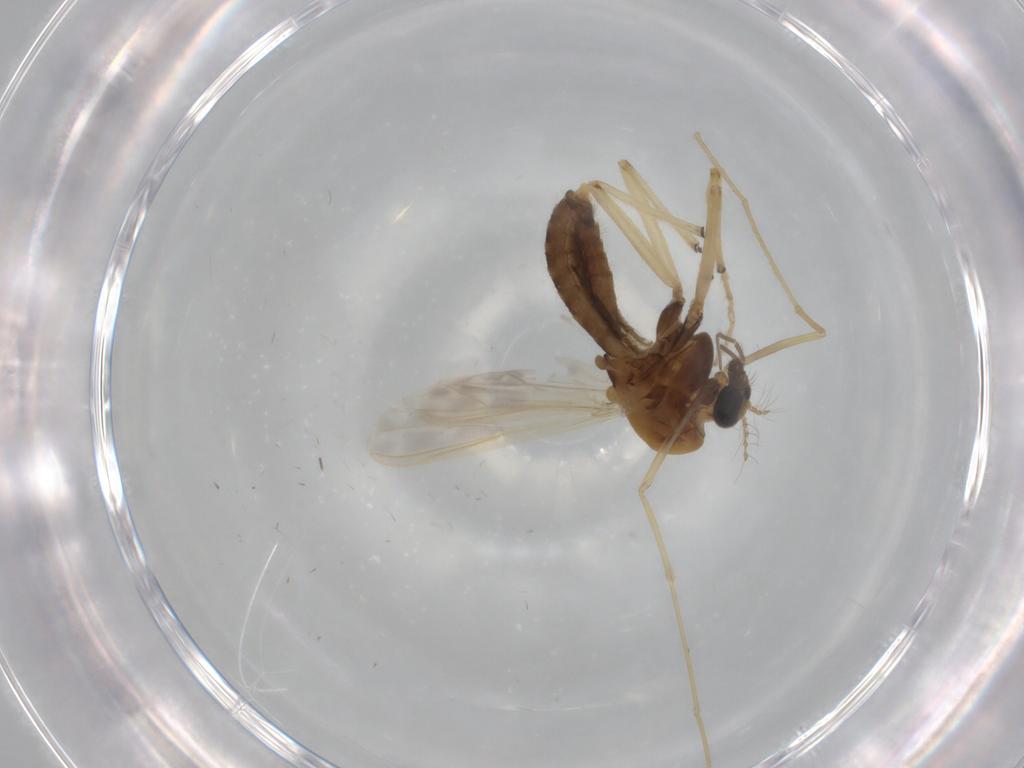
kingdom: Animalia
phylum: Arthropoda
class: Insecta
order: Diptera
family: Chironomidae
